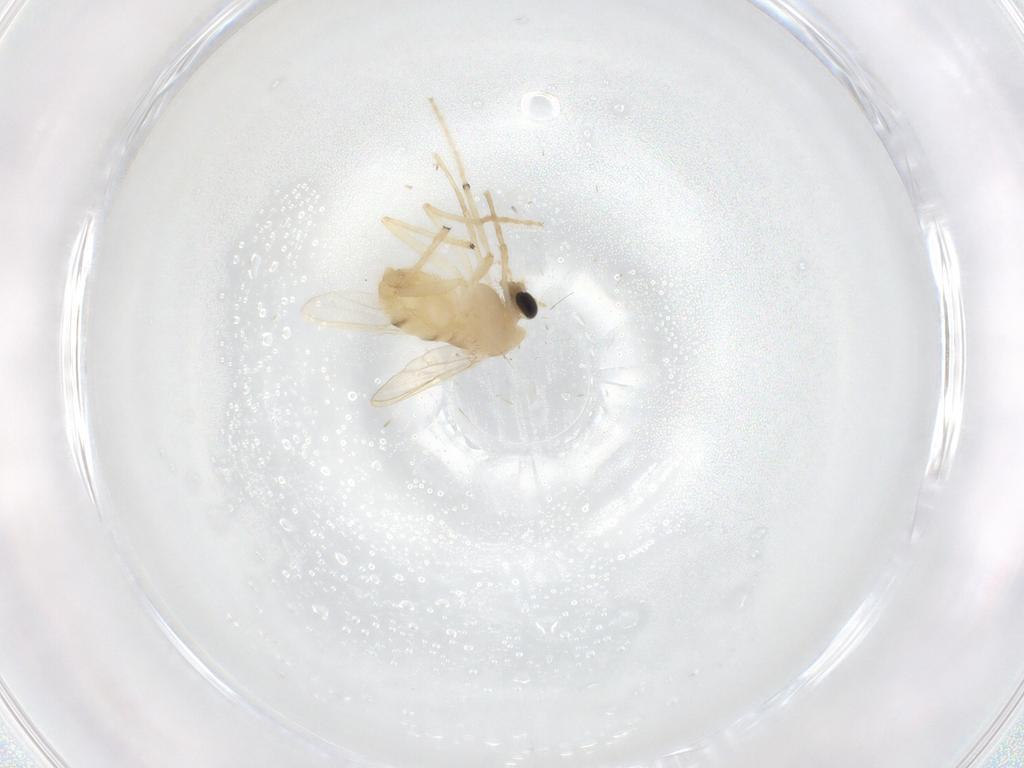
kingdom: Animalia
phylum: Arthropoda
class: Insecta
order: Diptera
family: Chironomidae
